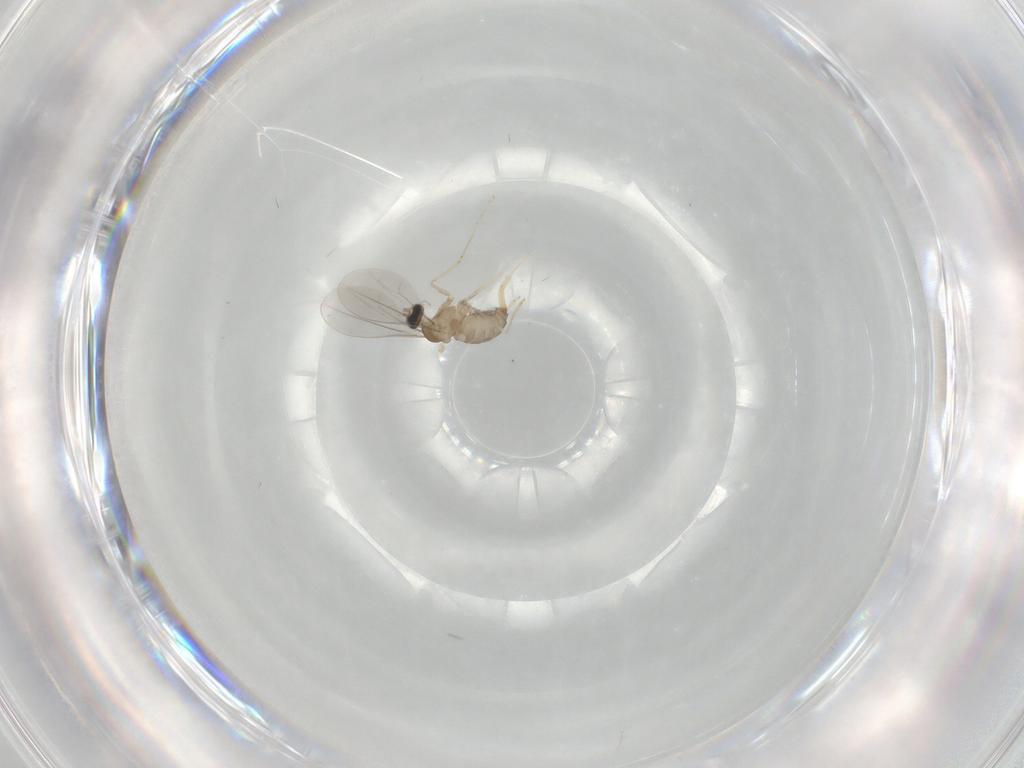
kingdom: Animalia
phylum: Arthropoda
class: Insecta
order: Diptera
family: Cecidomyiidae
